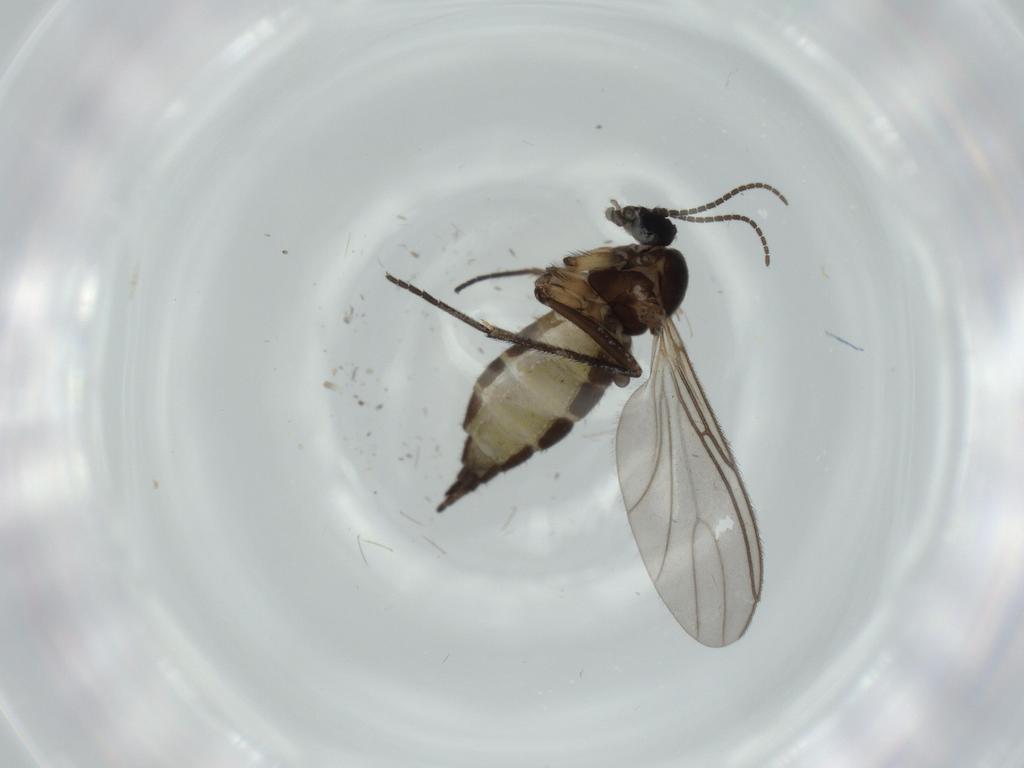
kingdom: Animalia
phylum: Arthropoda
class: Insecta
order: Diptera
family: Sciaridae
